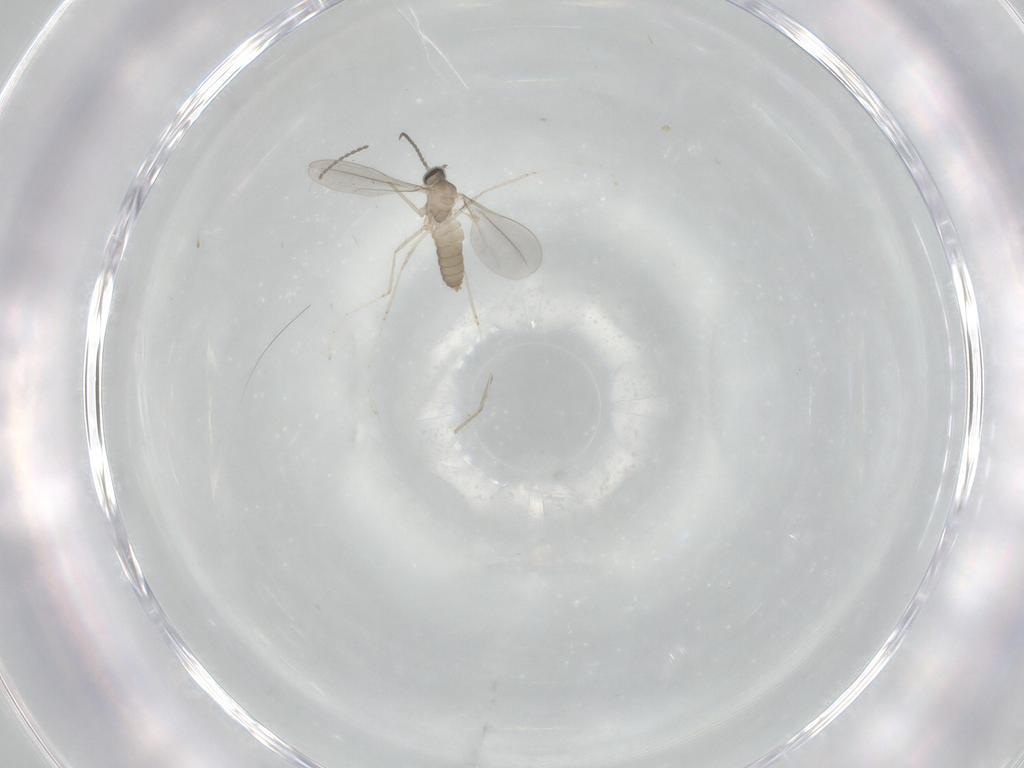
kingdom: Animalia
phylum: Arthropoda
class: Insecta
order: Diptera
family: Cecidomyiidae
